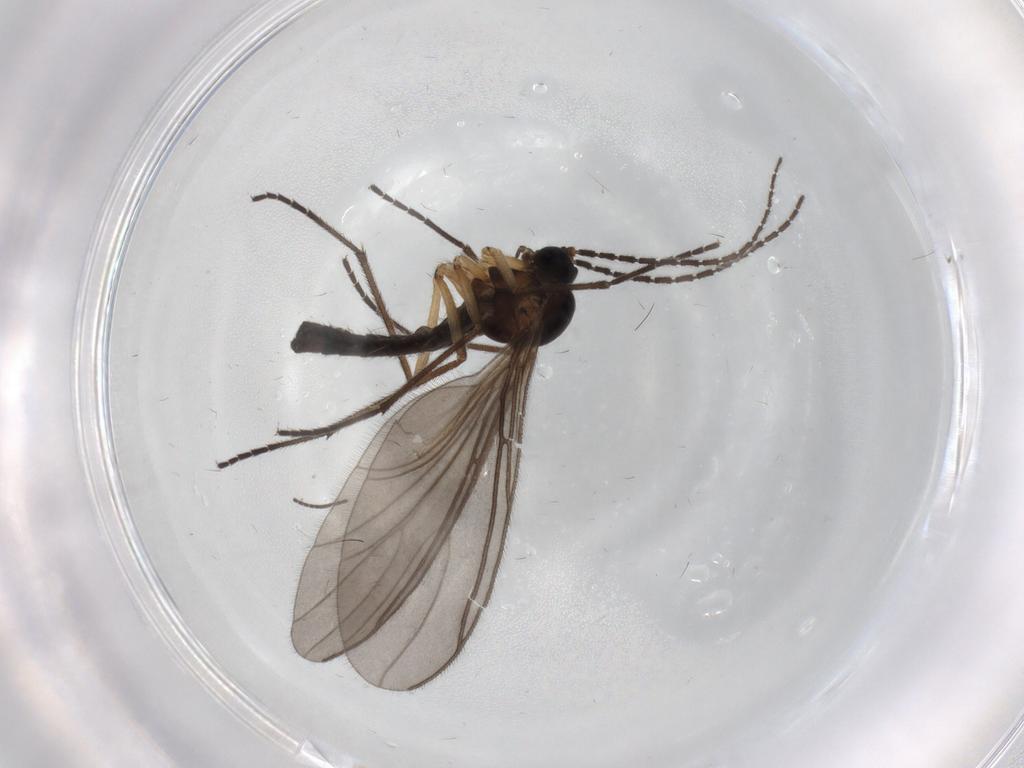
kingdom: Animalia
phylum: Arthropoda
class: Insecta
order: Diptera
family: Sciaridae
